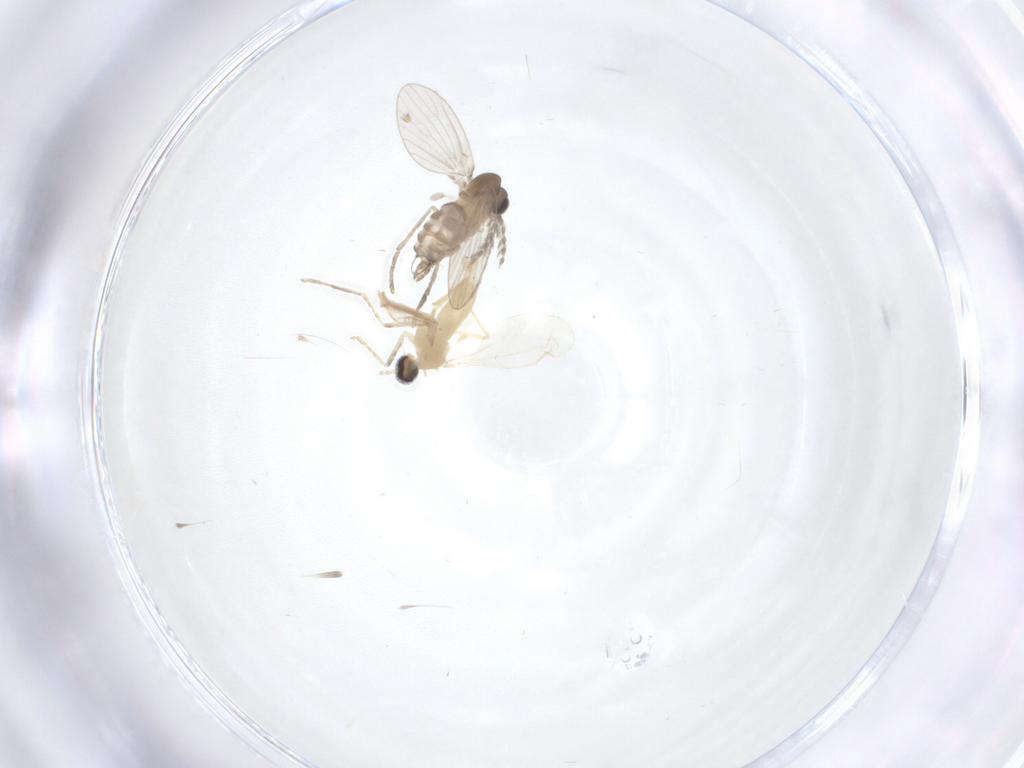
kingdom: Animalia
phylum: Arthropoda
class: Insecta
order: Diptera
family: Cecidomyiidae
